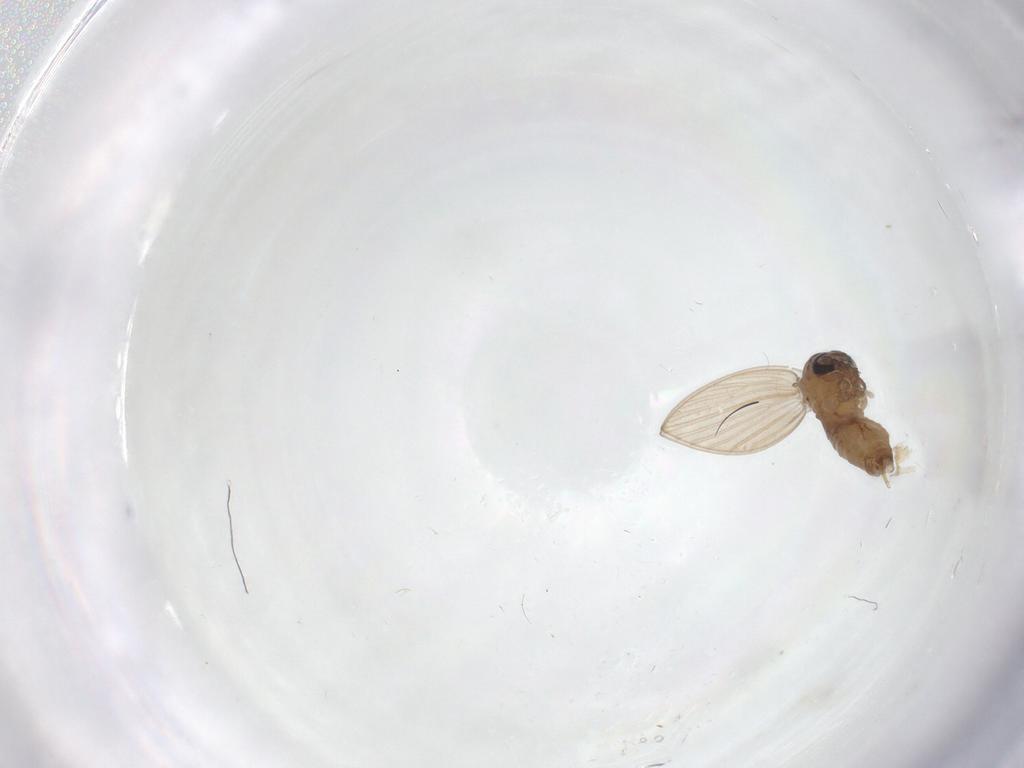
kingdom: Animalia
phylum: Arthropoda
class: Insecta
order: Diptera
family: Psychodidae
